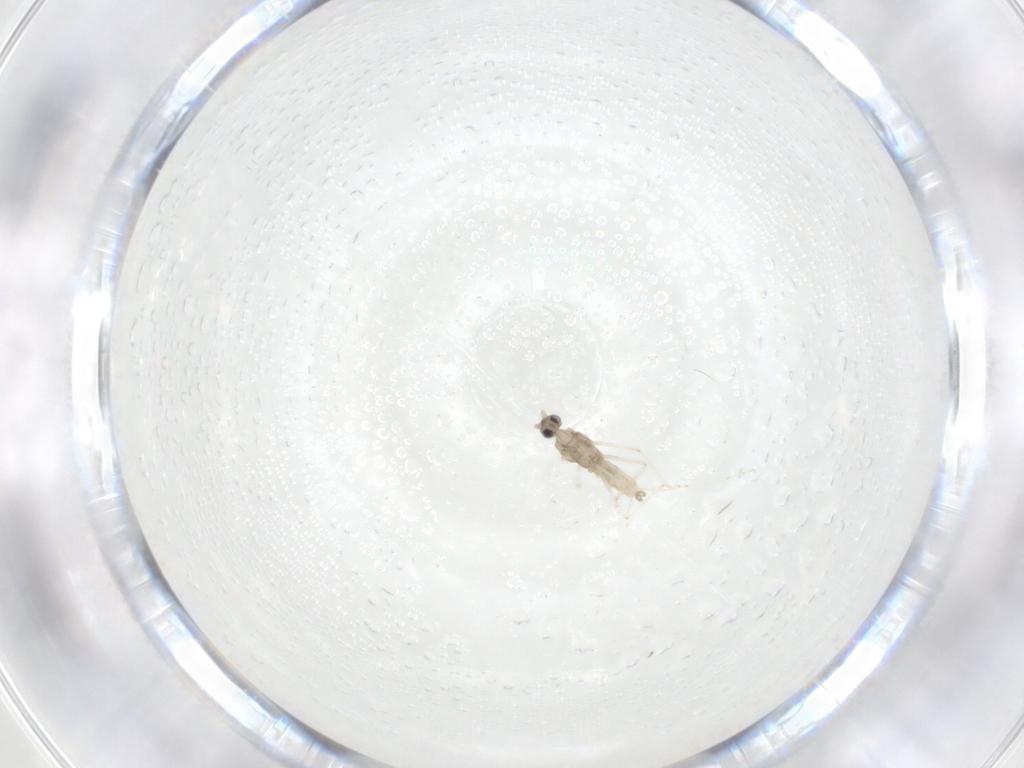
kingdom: Animalia
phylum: Arthropoda
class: Insecta
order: Diptera
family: Cecidomyiidae
